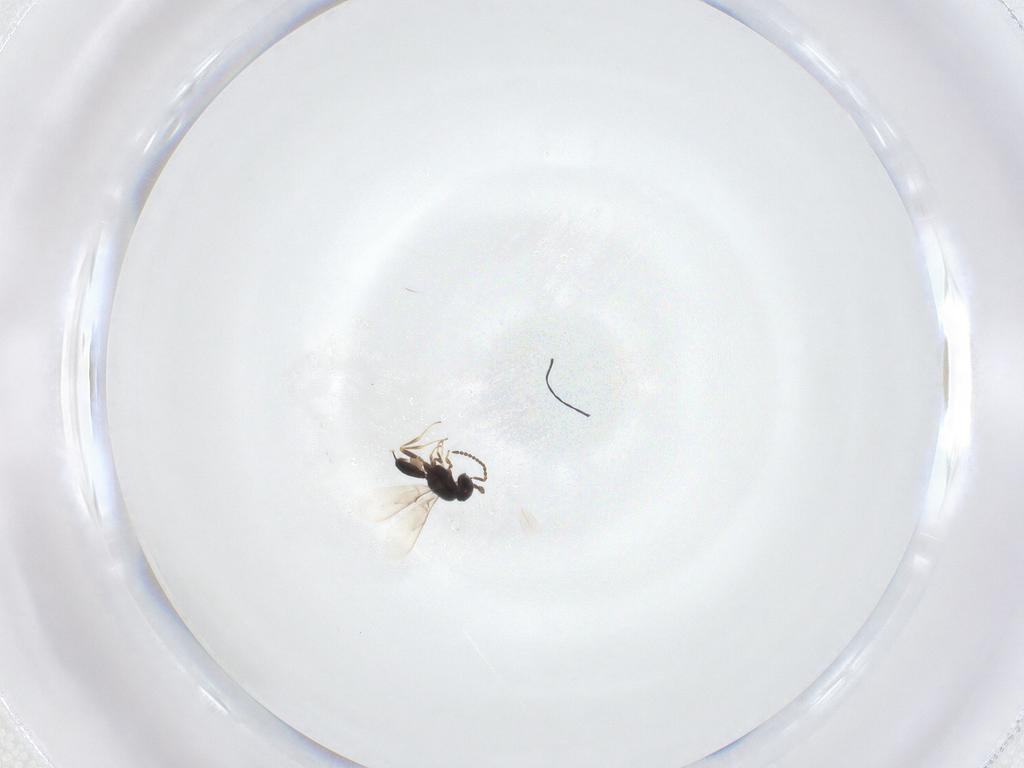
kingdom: Animalia
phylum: Arthropoda
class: Insecta
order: Hymenoptera
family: Scelionidae
